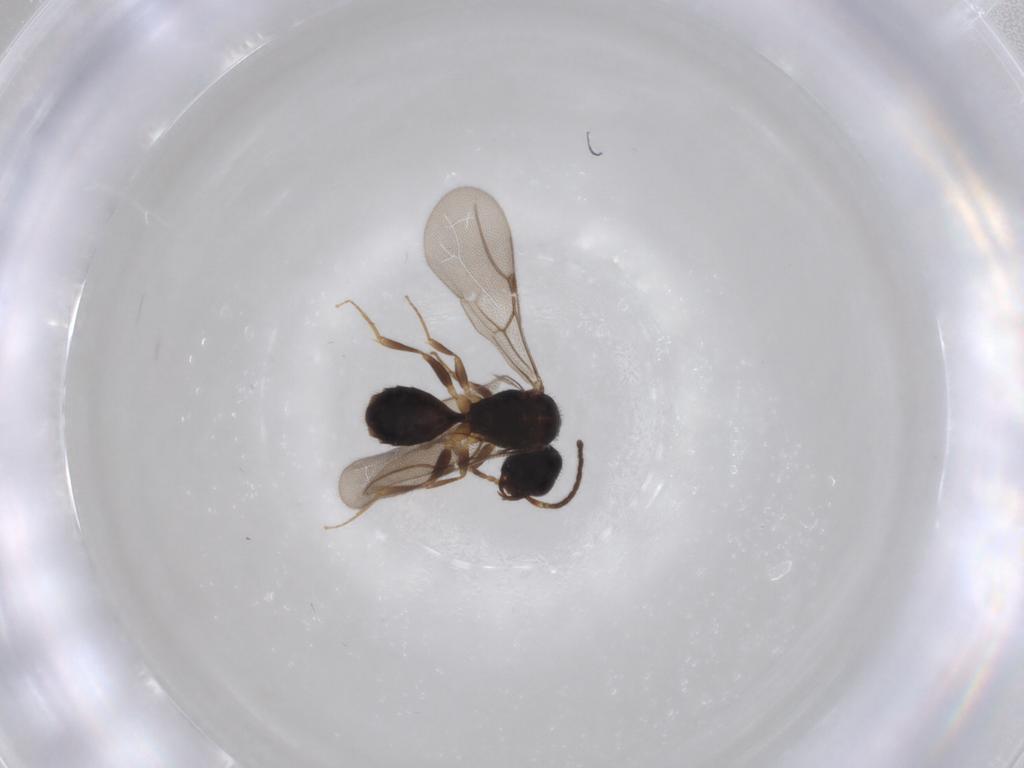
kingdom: Animalia
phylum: Arthropoda
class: Insecta
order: Hymenoptera
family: Bethylidae
